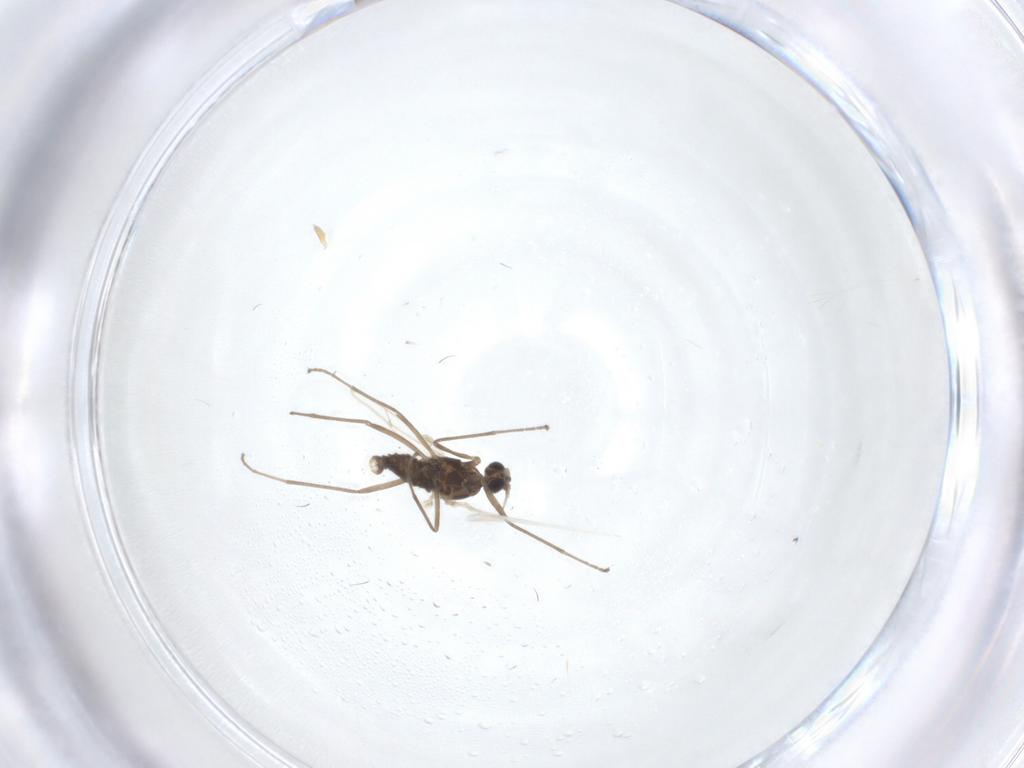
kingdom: Animalia
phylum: Arthropoda
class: Insecta
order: Diptera
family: Cecidomyiidae
